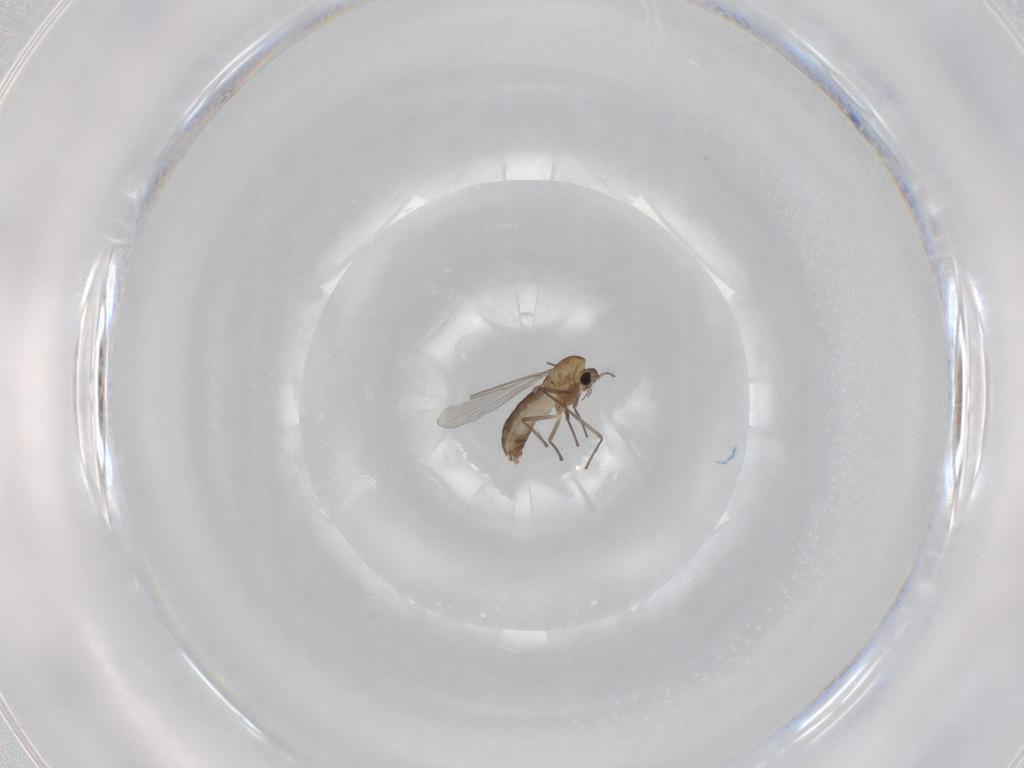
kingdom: Animalia
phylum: Arthropoda
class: Insecta
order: Diptera
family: Chironomidae
